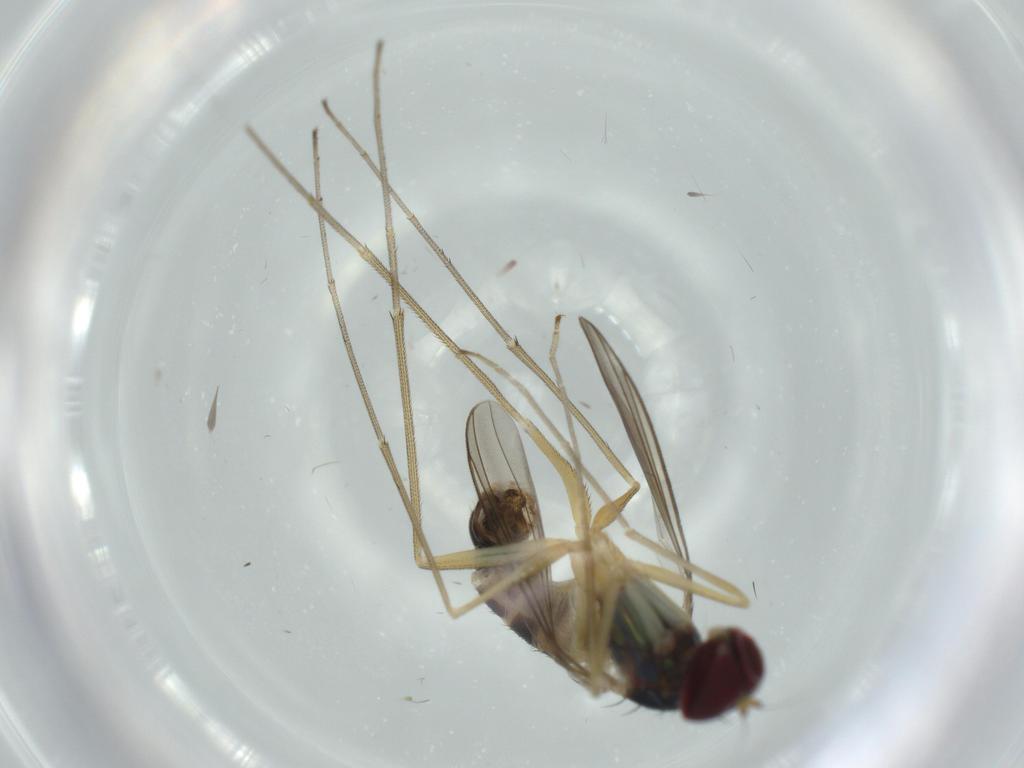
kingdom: Animalia
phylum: Arthropoda
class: Insecta
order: Diptera
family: Dolichopodidae
